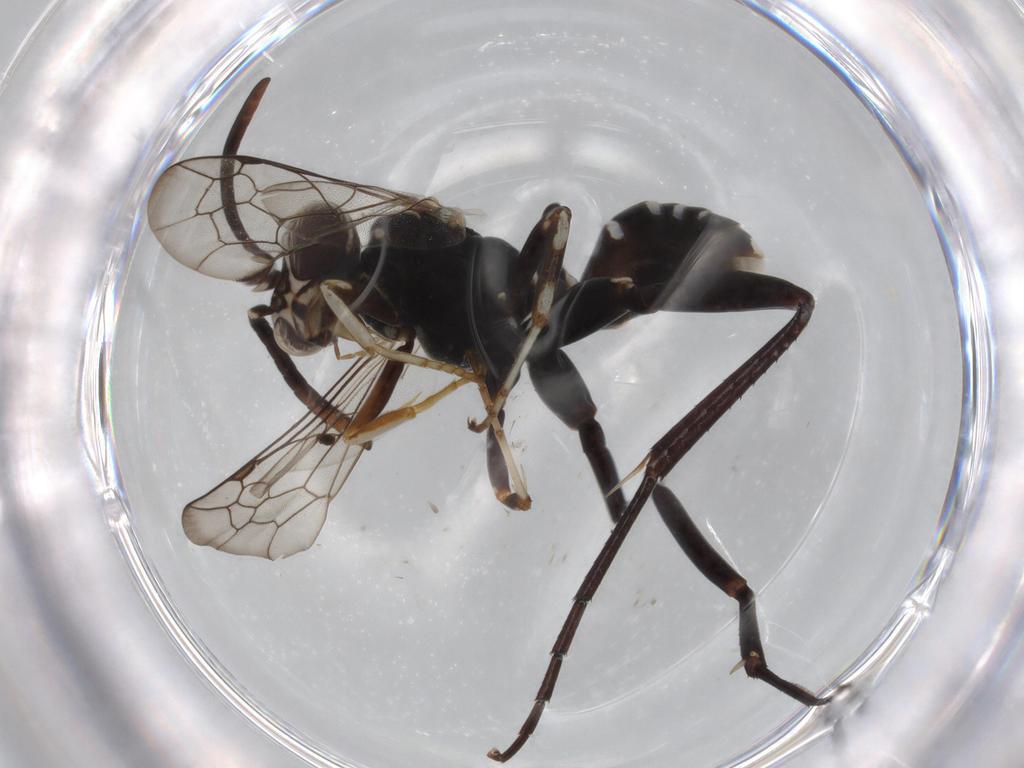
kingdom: Animalia
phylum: Arthropoda
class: Insecta
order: Hymenoptera
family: Pompilidae
